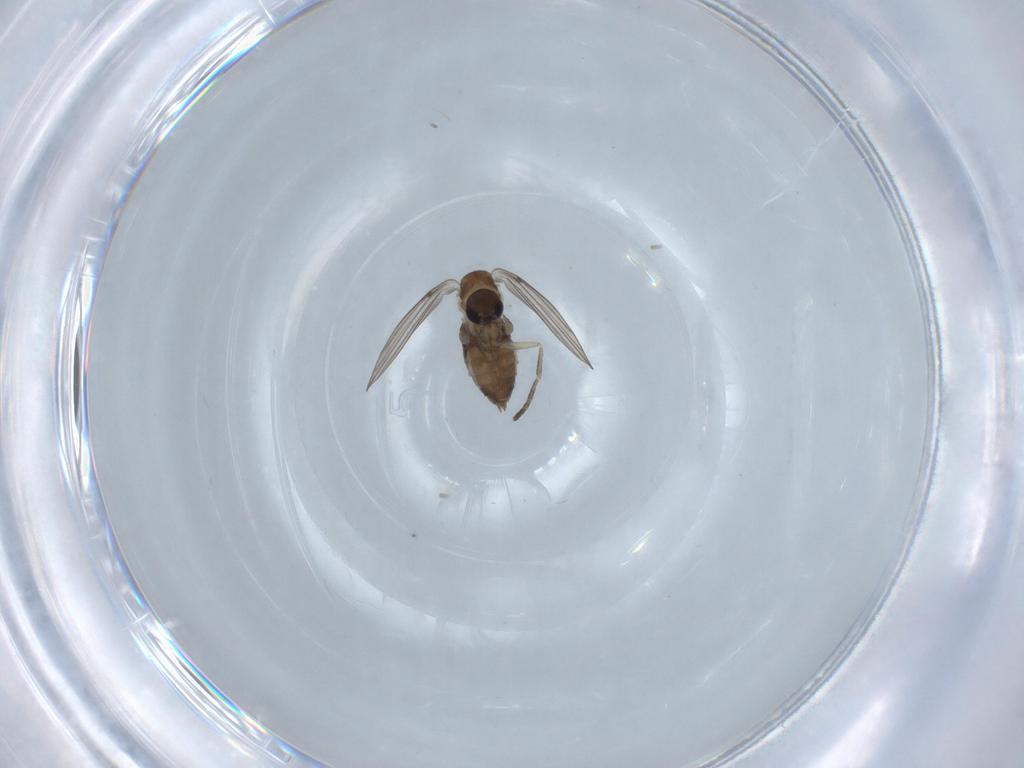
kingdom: Animalia
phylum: Arthropoda
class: Insecta
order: Diptera
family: Psychodidae
